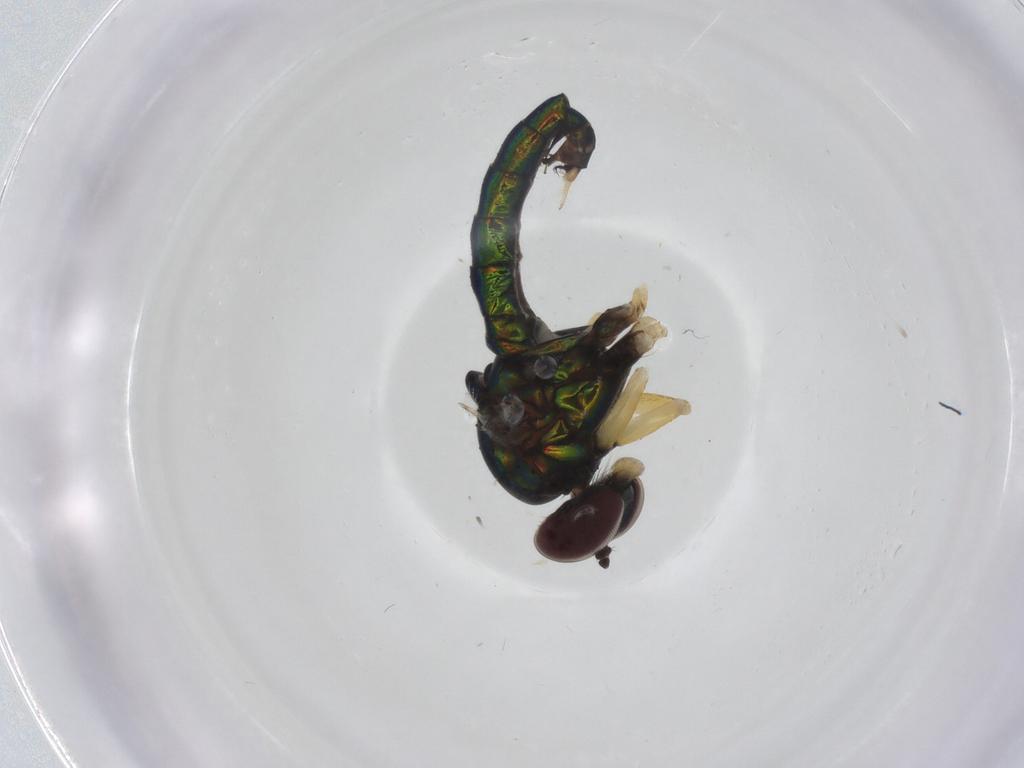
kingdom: Animalia
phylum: Arthropoda
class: Insecta
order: Diptera
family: Dolichopodidae
